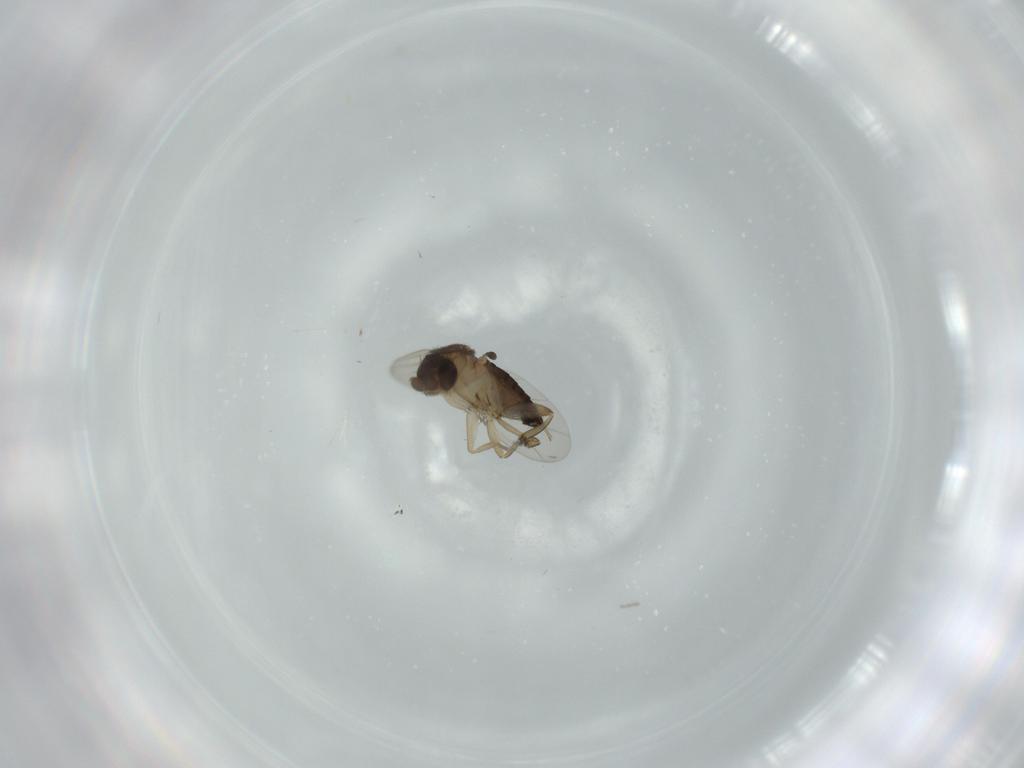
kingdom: Animalia
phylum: Arthropoda
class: Insecta
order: Diptera
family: Phoridae
